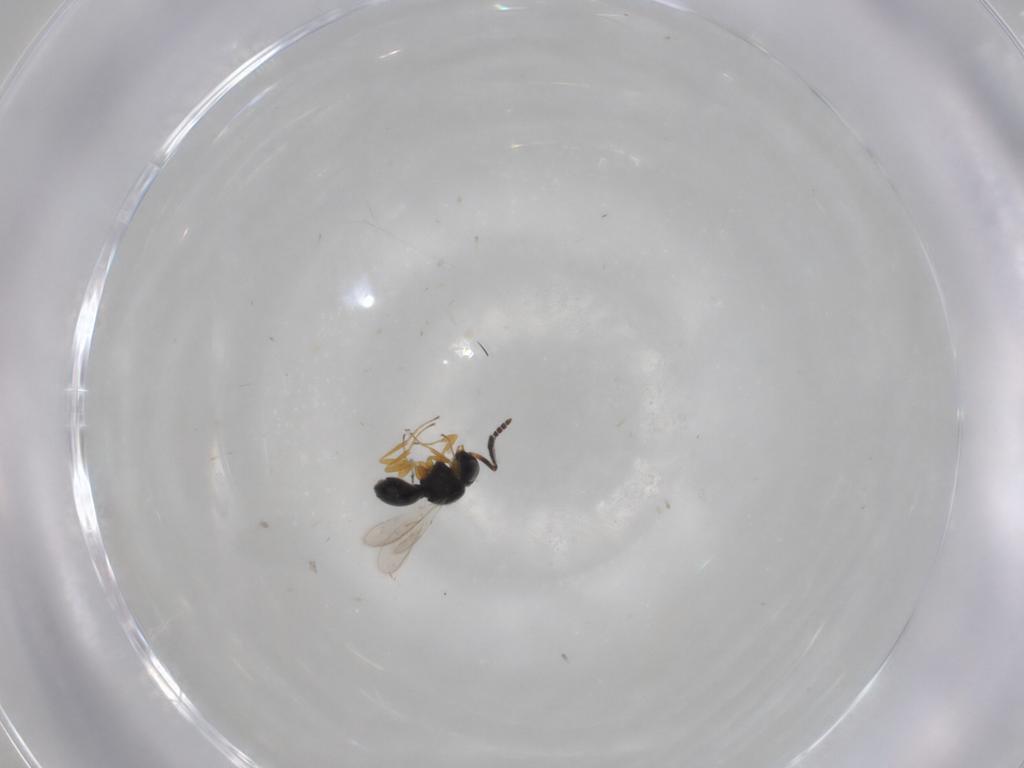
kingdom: Animalia
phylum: Arthropoda
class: Insecta
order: Hymenoptera
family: Scelionidae
